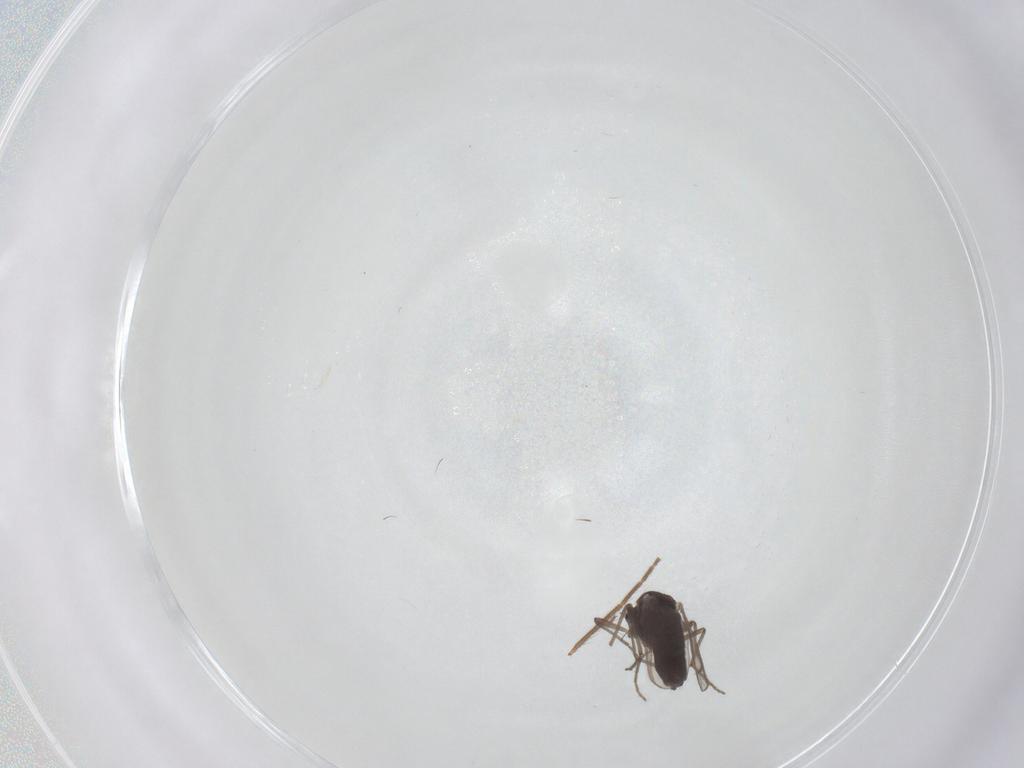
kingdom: Animalia
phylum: Arthropoda
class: Insecta
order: Diptera
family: Chironomidae
